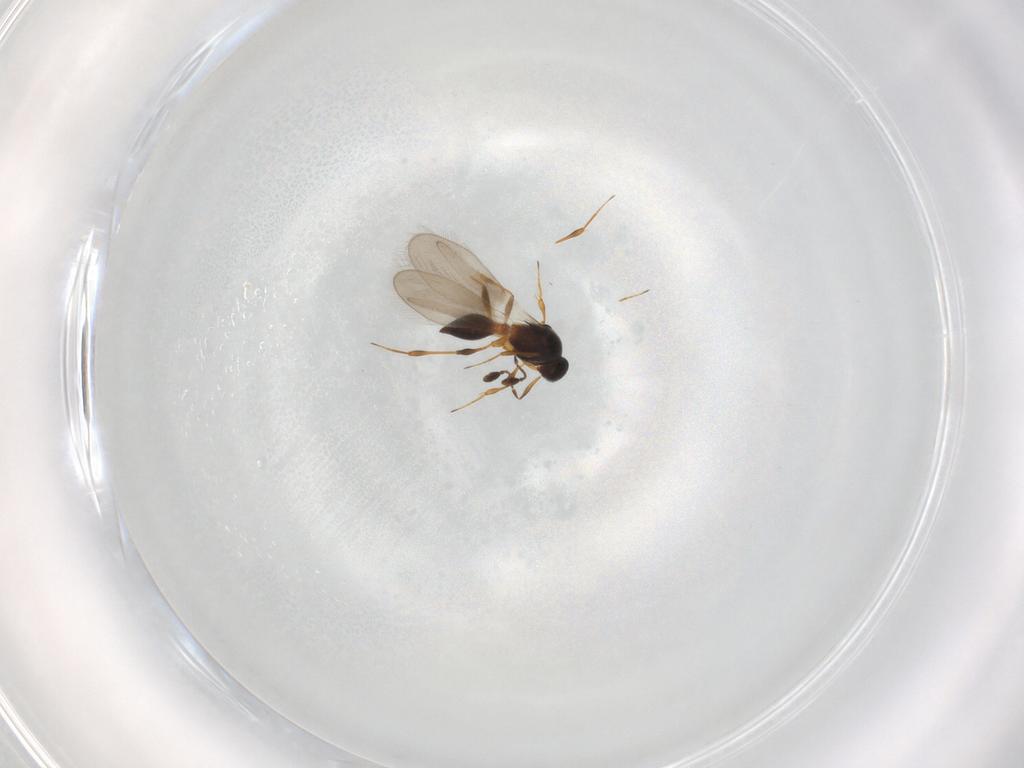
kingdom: Animalia
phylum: Arthropoda
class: Insecta
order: Hymenoptera
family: Platygastridae
